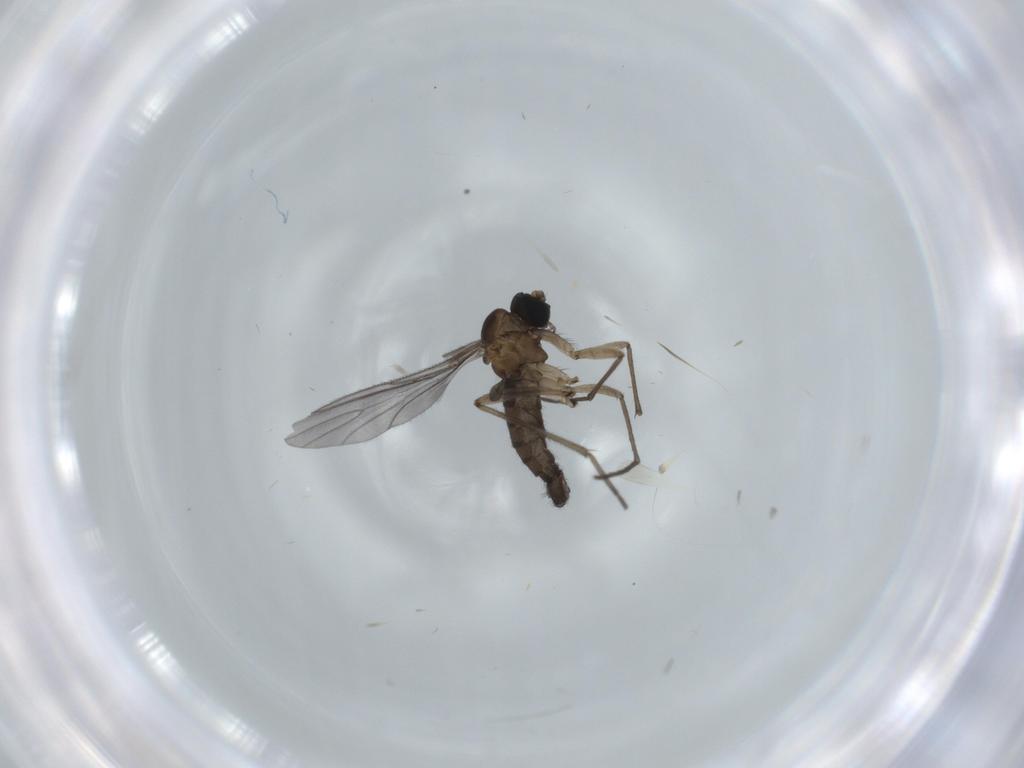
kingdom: Animalia
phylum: Arthropoda
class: Insecta
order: Diptera
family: Sciaridae
